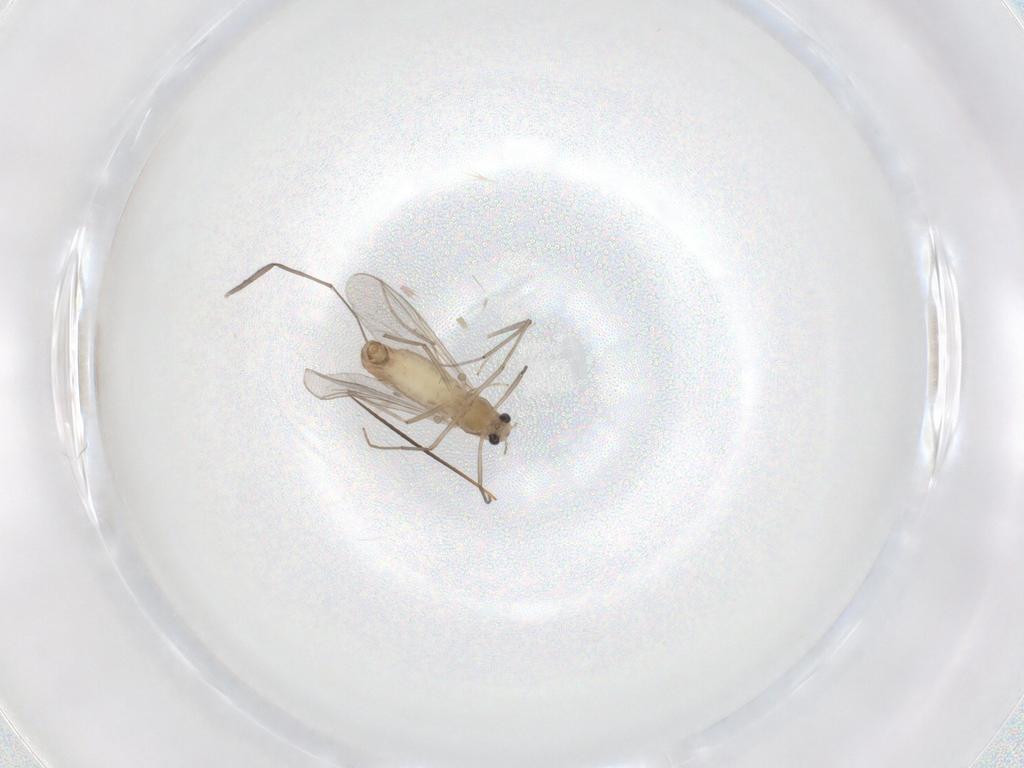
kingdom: Animalia
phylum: Arthropoda
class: Insecta
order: Diptera
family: Chironomidae
